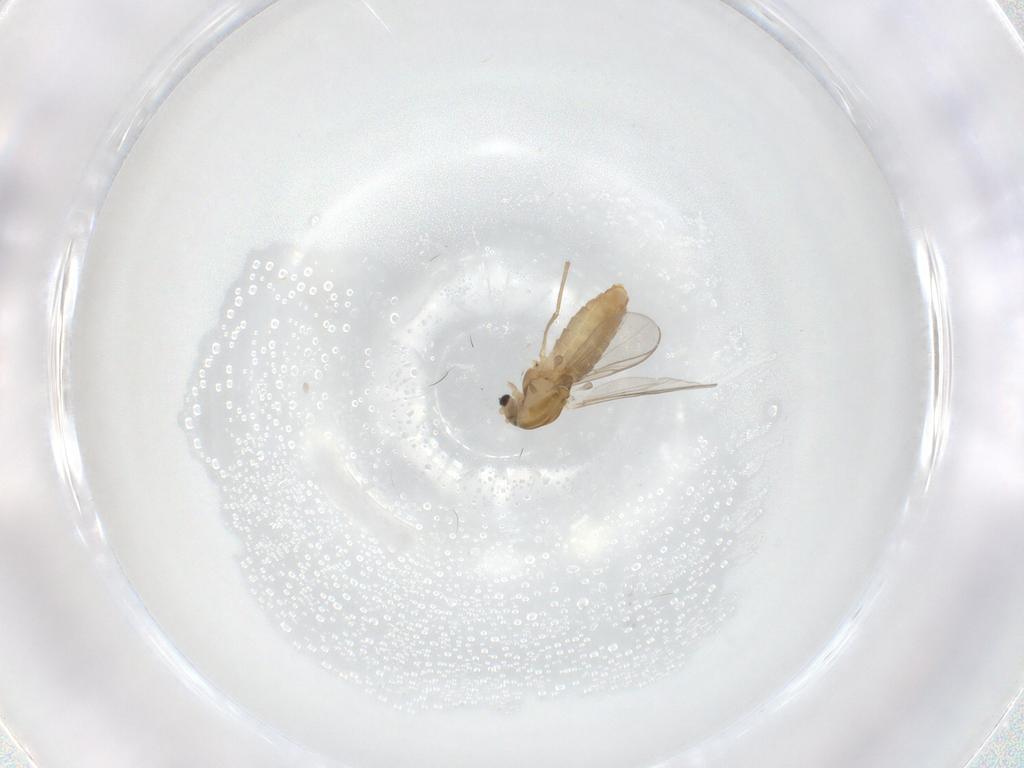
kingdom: Animalia
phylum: Arthropoda
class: Insecta
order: Diptera
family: Chironomidae
